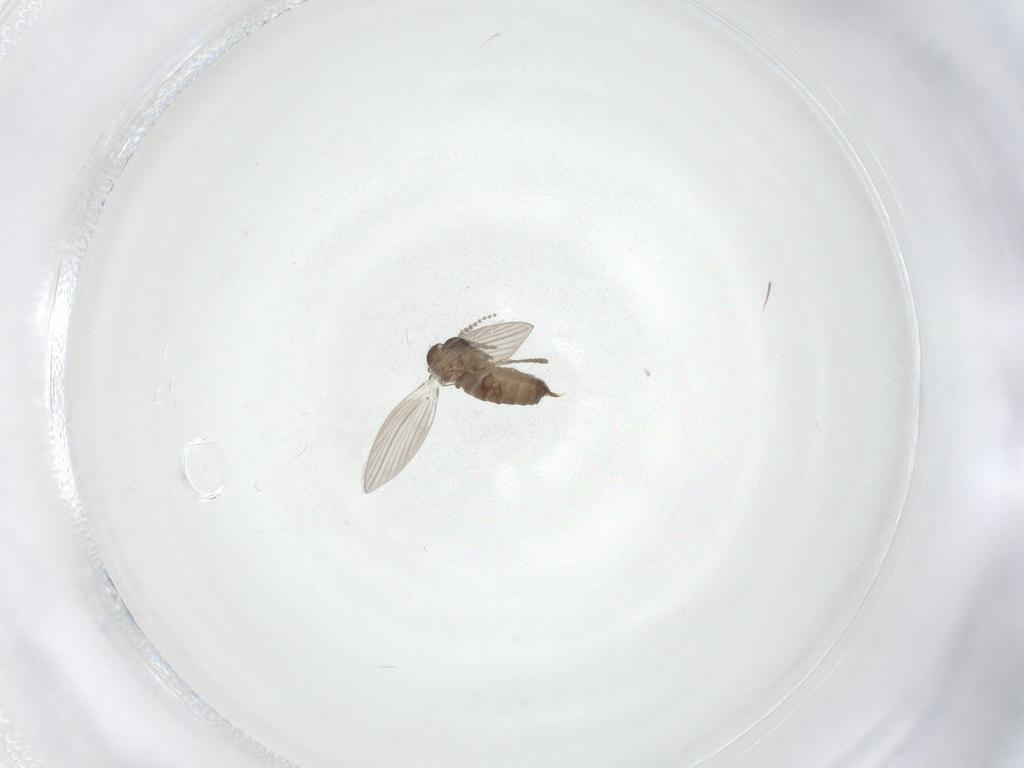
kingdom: Animalia
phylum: Arthropoda
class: Insecta
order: Diptera
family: Psychodidae
